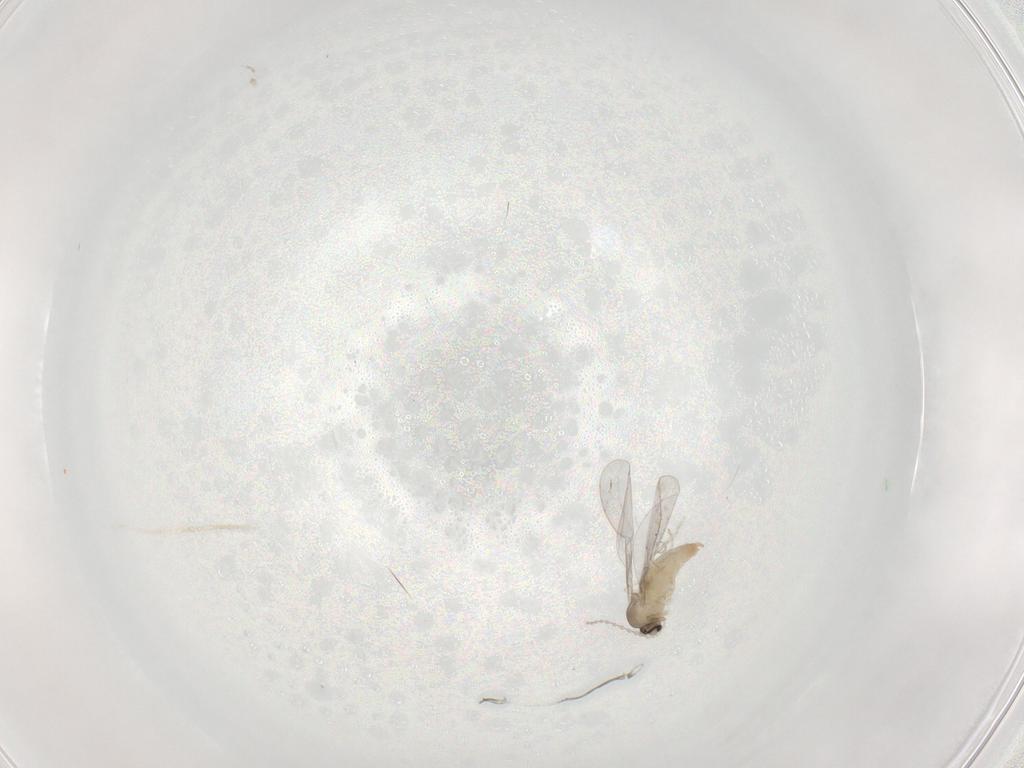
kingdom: Animalia
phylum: Arthropoda
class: Insecta
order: Diptera
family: Cecidomyiidae
